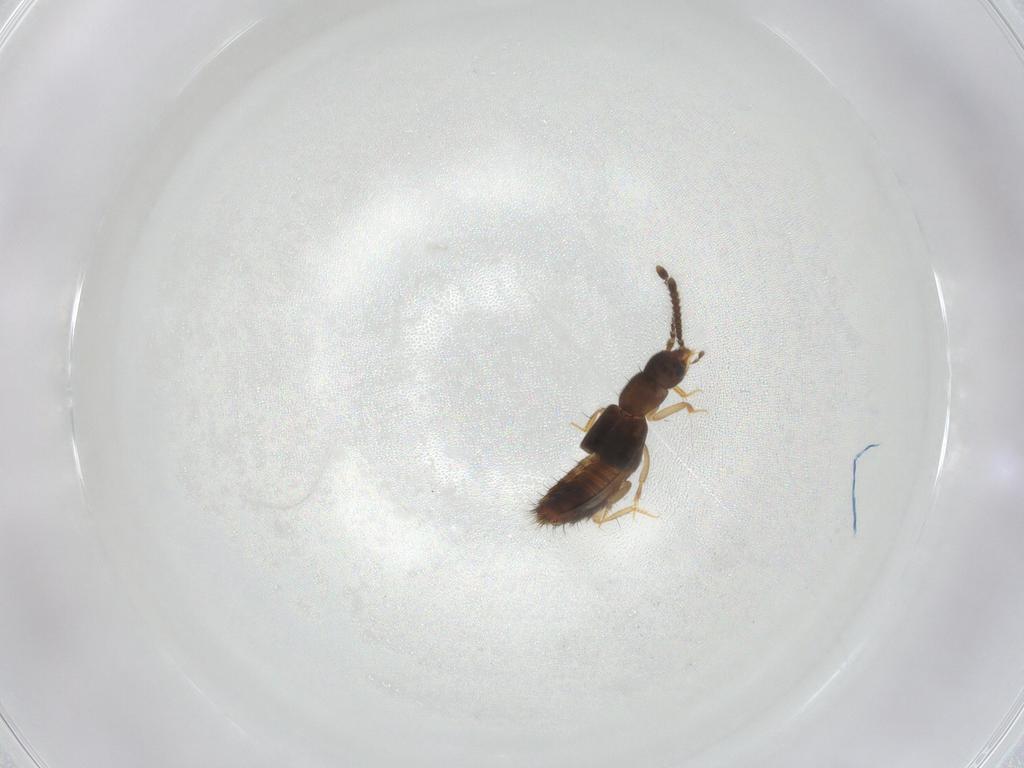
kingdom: Animalia
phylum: Arthropoda
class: Insecta
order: Coleoptera
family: Staphylinidae
